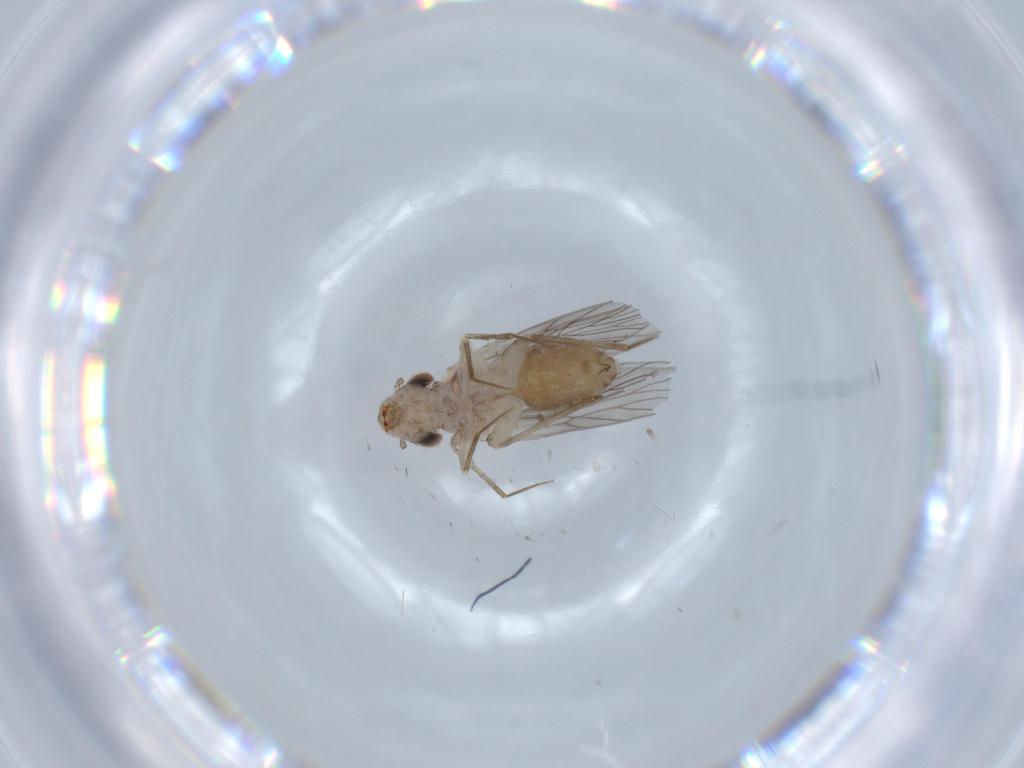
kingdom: Animalia
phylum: Arthropoda
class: Insecta
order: Psocodea
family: Lepidopsocidae
